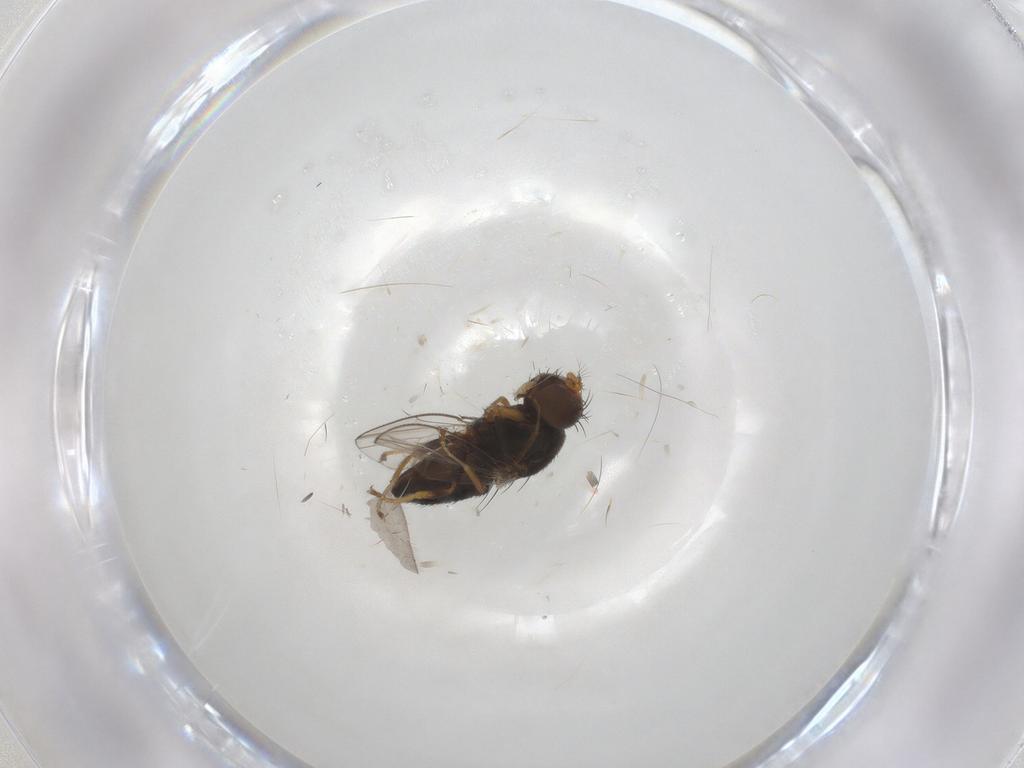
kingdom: Animalia
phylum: Arthropoda
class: Insecta
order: Diptera
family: Ephydridae
